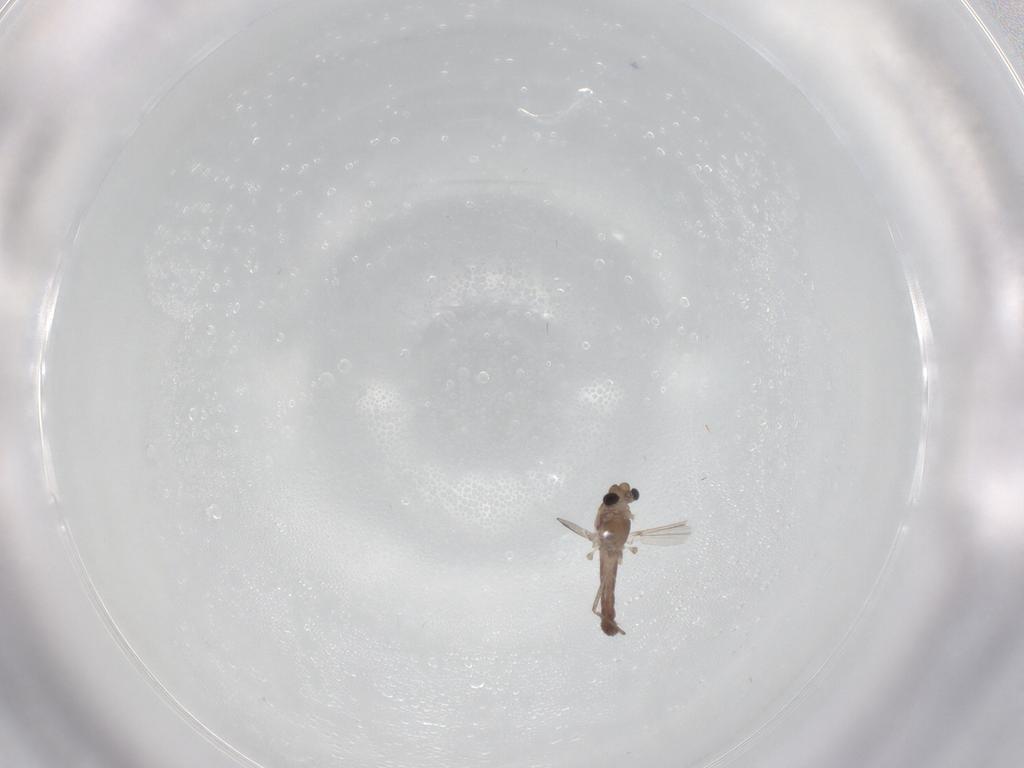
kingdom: Animalia
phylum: Arthropoda
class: Insecta
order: Diptera
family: Chironomidae
